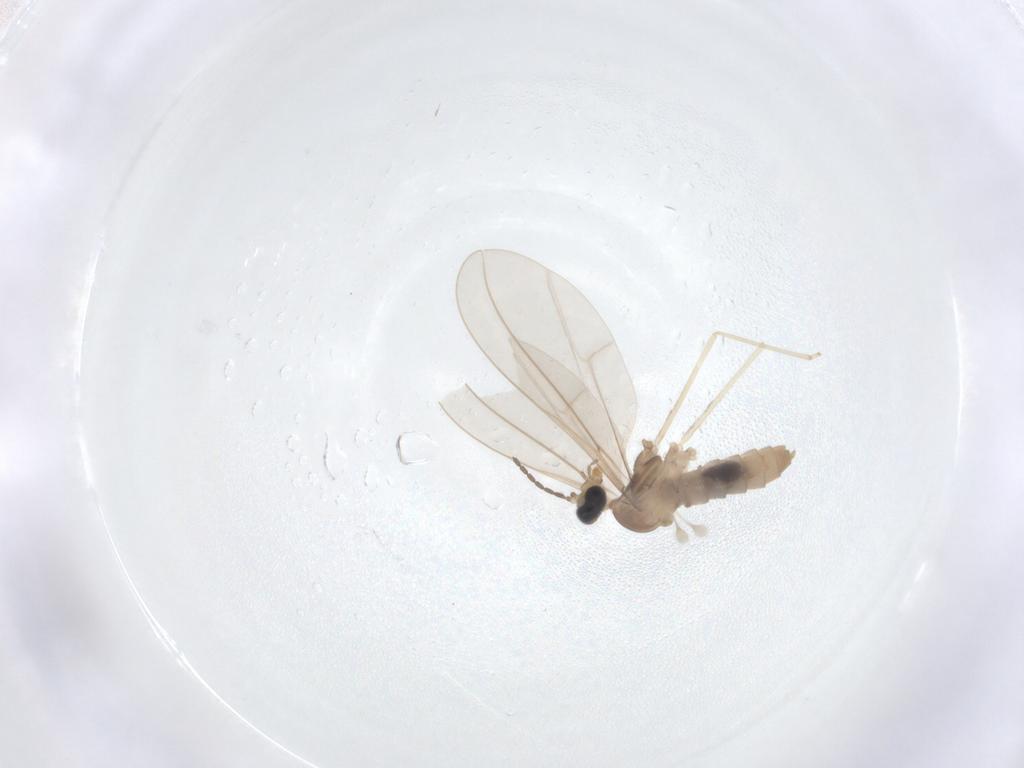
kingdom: Animalia
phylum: Arthropoda
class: Insecta
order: Diptera
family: Sciaridae
